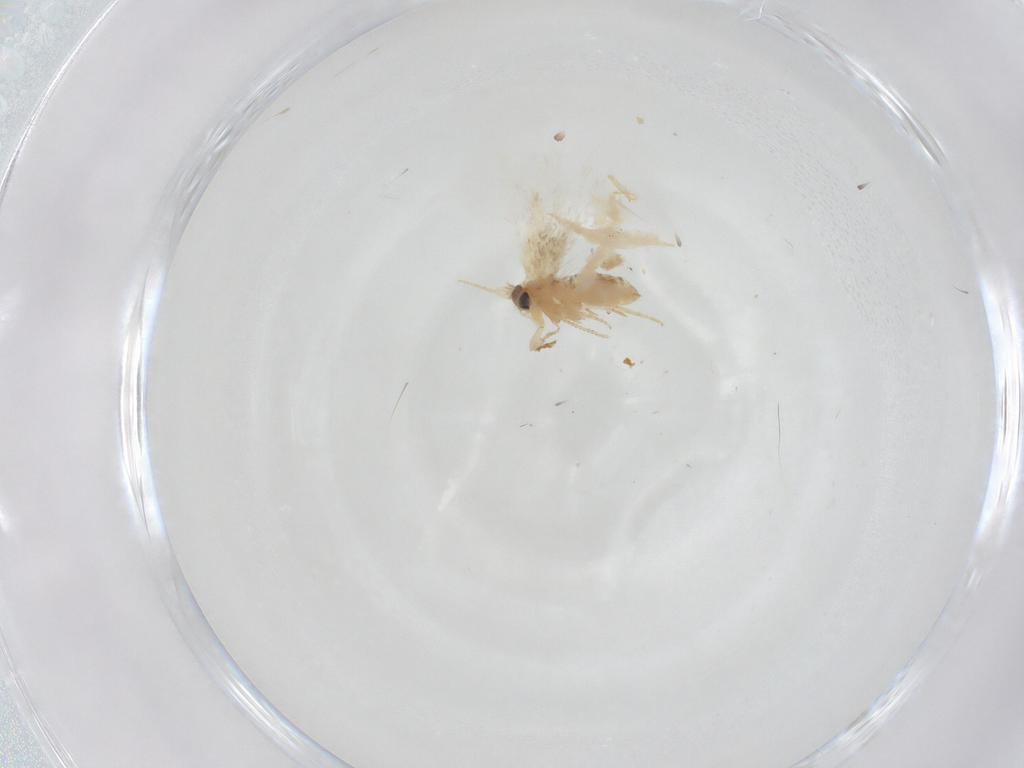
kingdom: Animalia
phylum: Arthropoda
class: Insecta
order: Lepidoptera
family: Nepticulidae
